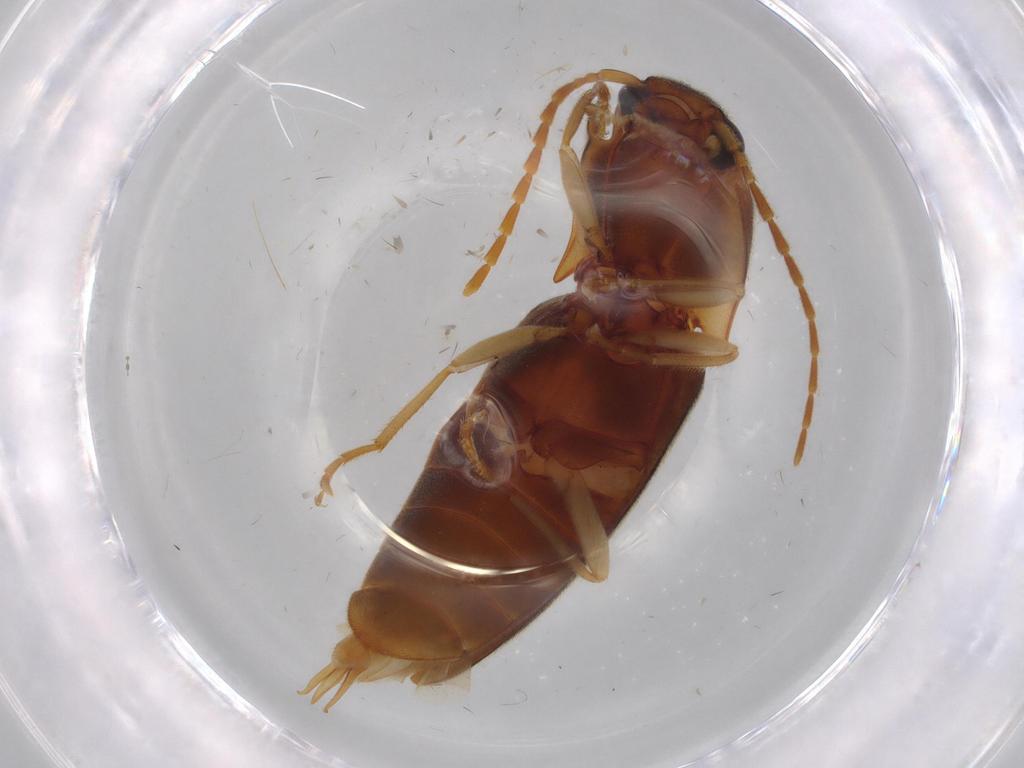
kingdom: Animalia
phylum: Arthropoda
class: Insecta
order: Coleoptera
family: Elateridae
